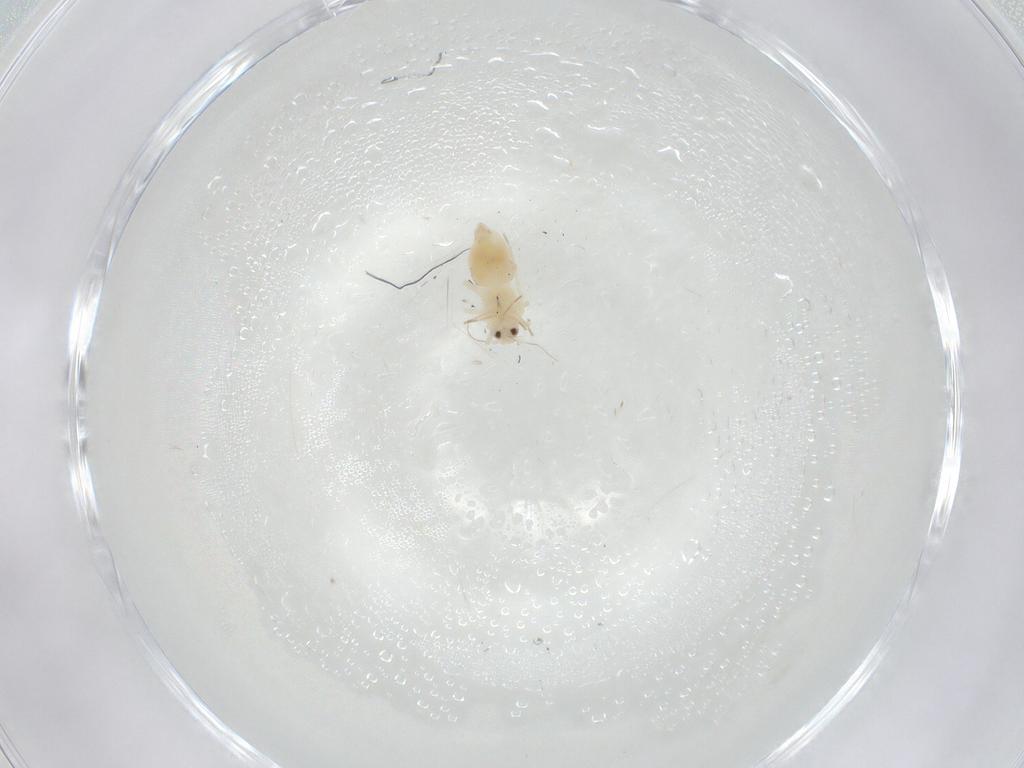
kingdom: Animalia
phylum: Arthropoda
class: Insecta
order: Hemiptera
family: Aleyrodidae
